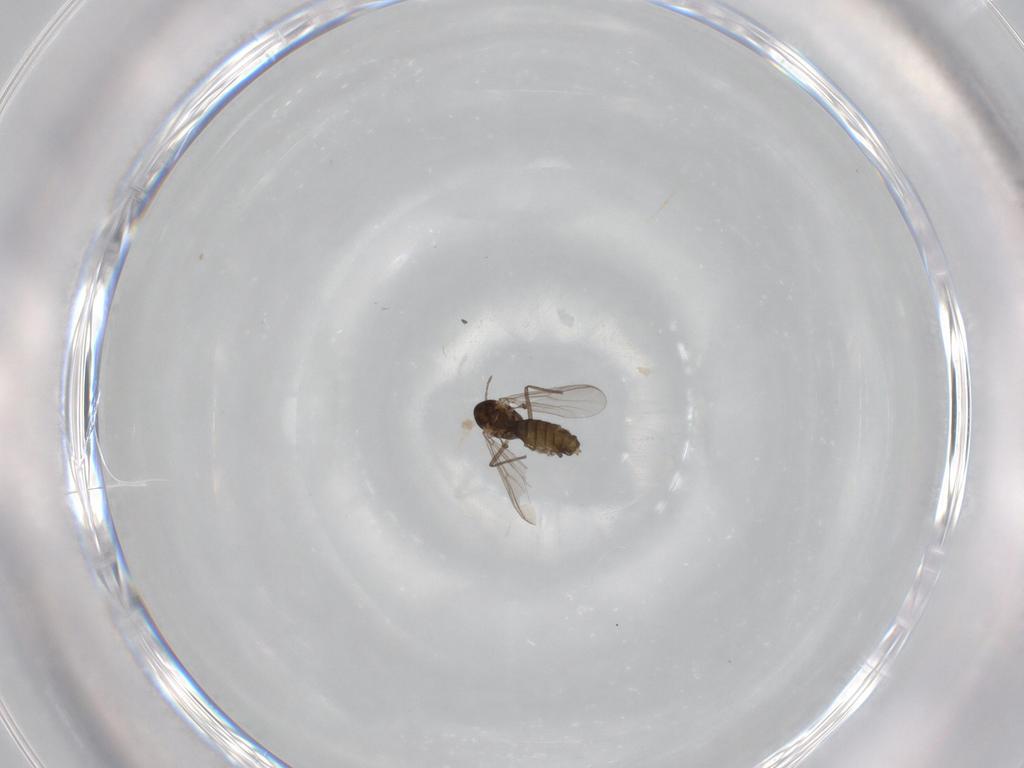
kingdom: Animalia
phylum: Arthropoda
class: Insecta
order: Diptera
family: Chironomidae
